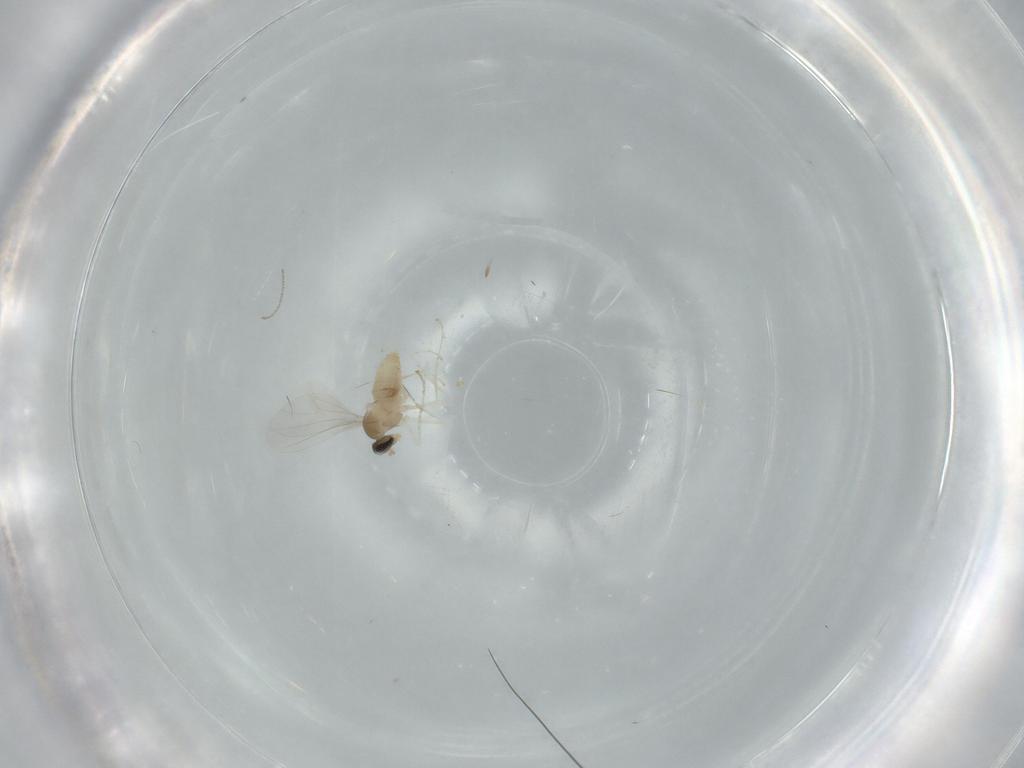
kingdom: Animalia
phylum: Arthropoda
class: Insecta
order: Diptera
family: Cecidomyiidae
